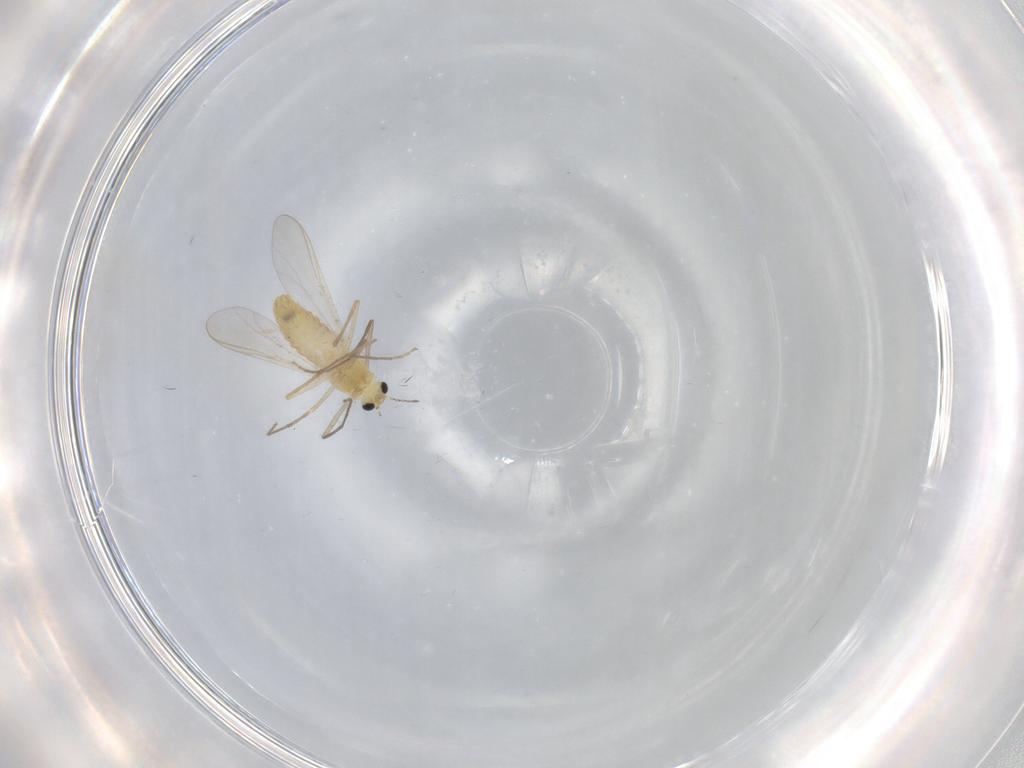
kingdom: Animalia
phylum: Arthropoda
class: Insecta
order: Diptera
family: Chironomidae
